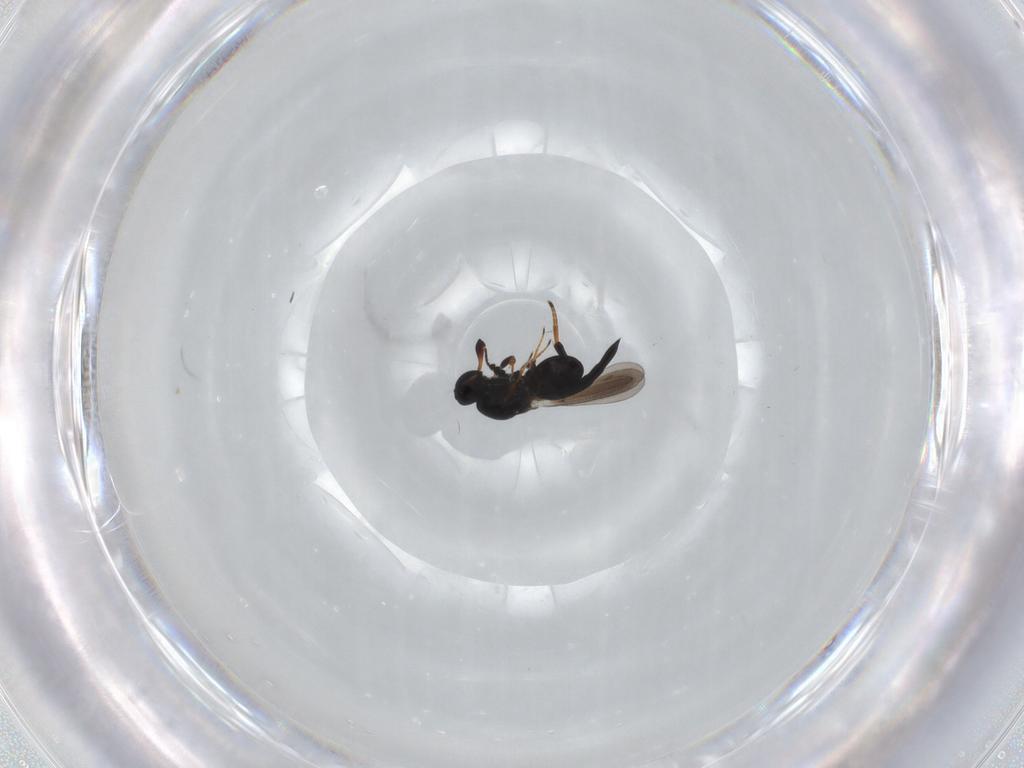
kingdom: Animalia
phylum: Arthropoda
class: Insecta
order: Hymenoptera
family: Platygastridae
